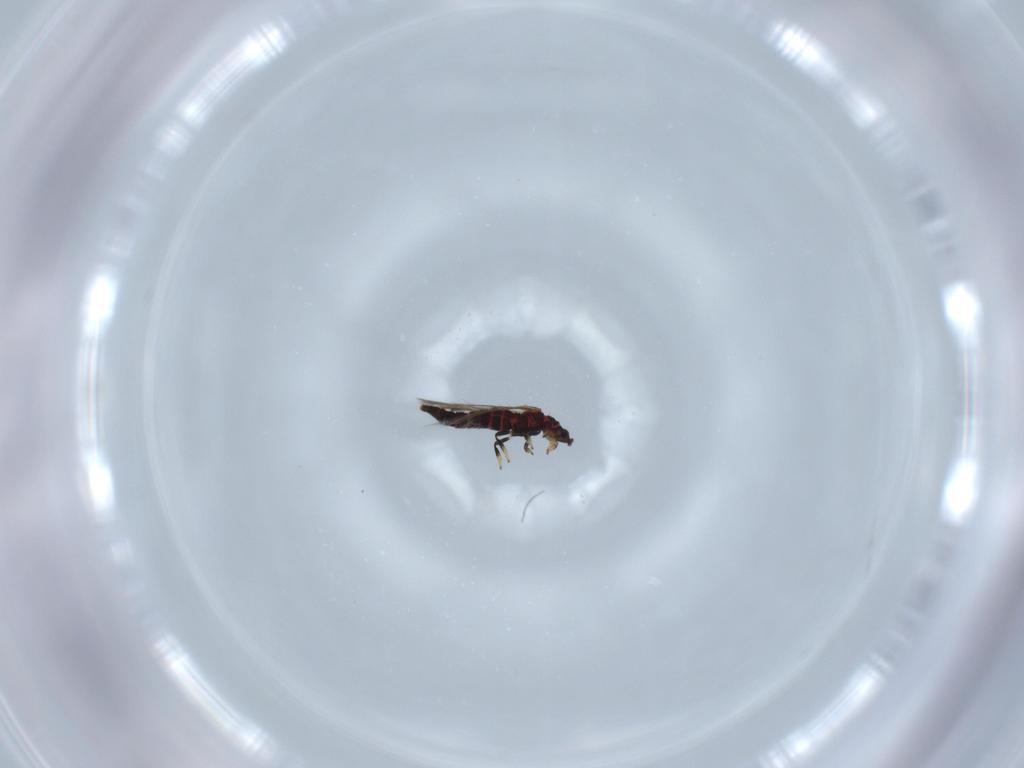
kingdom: Animalia
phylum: Arthropoda
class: Insecta
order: Thysanoptera
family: Thripidae
